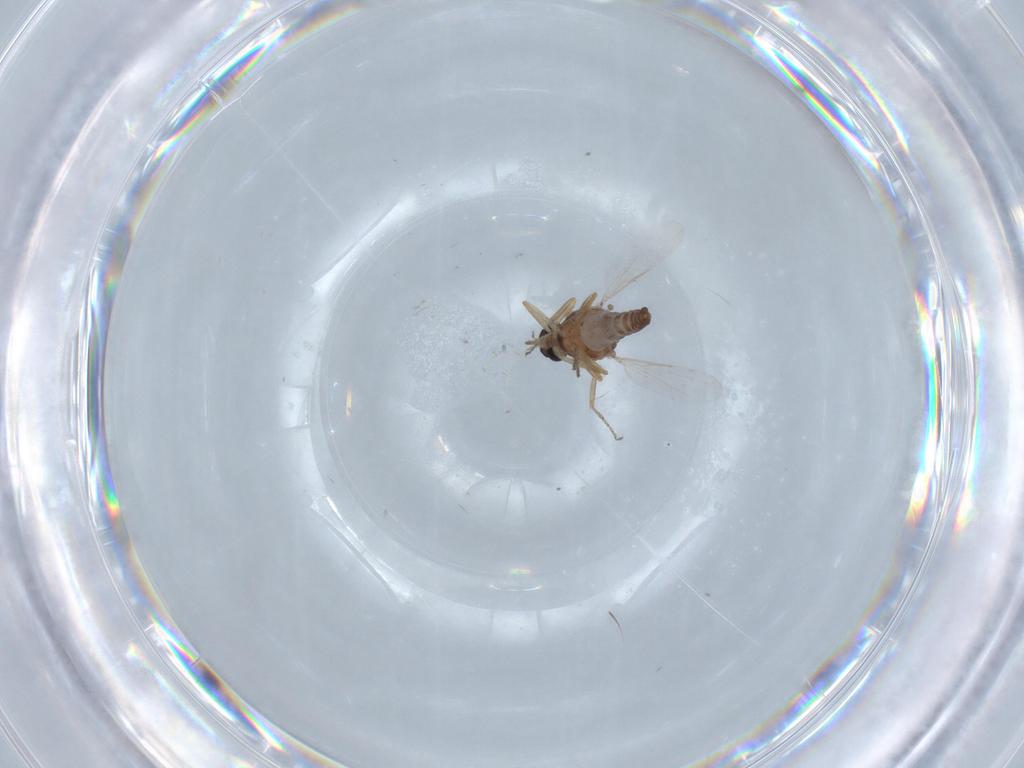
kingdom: Animalia
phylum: Arthropoda
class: Insecta
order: Diptera
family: Ceratopogonidae
